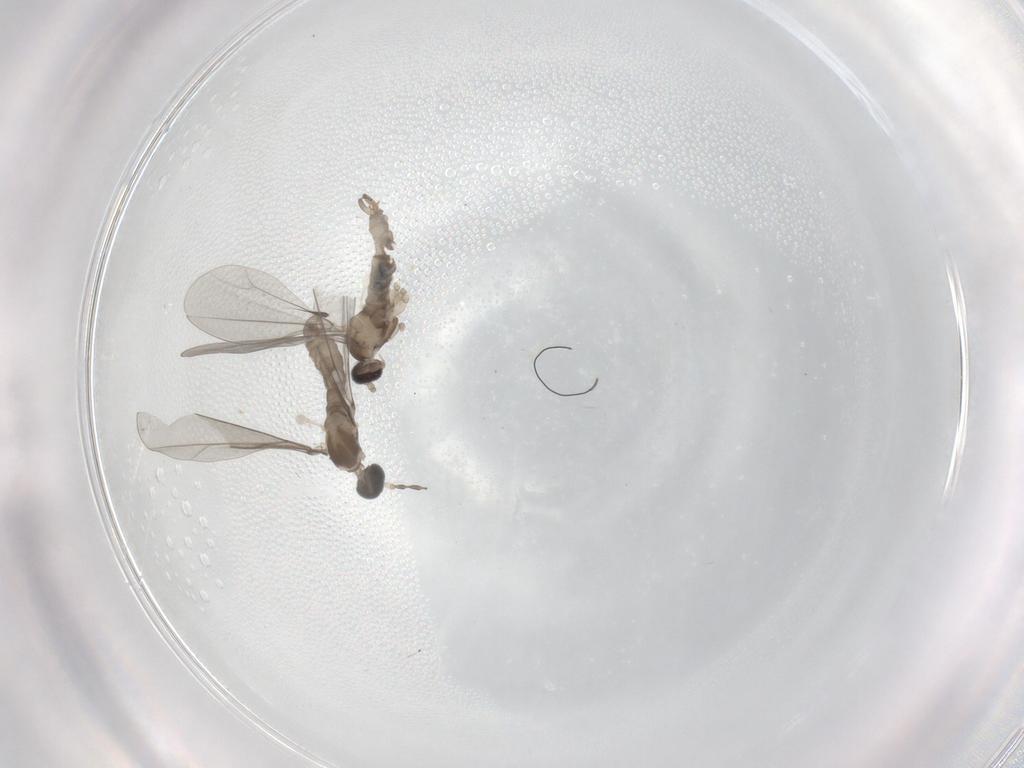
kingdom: Animalia
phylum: Arthropoda
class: Insecta
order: Diptera
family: Cecidomyiidae
